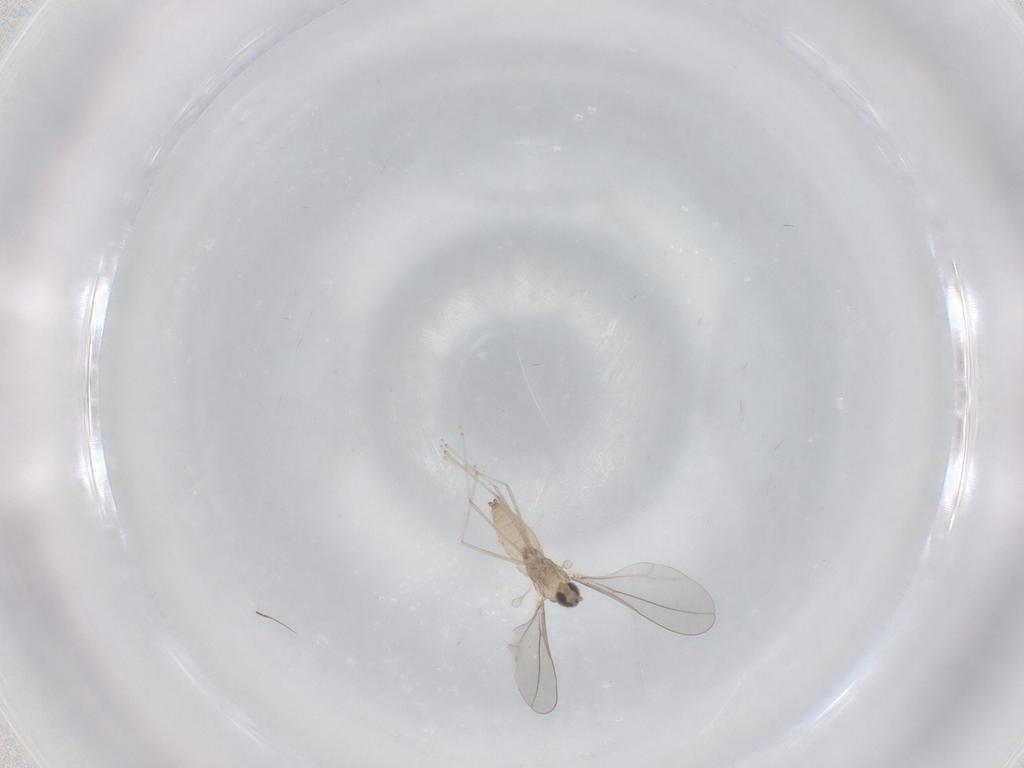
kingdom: Animalia
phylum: Arthropoda
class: Insecta
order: Diptera
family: Phoridae
